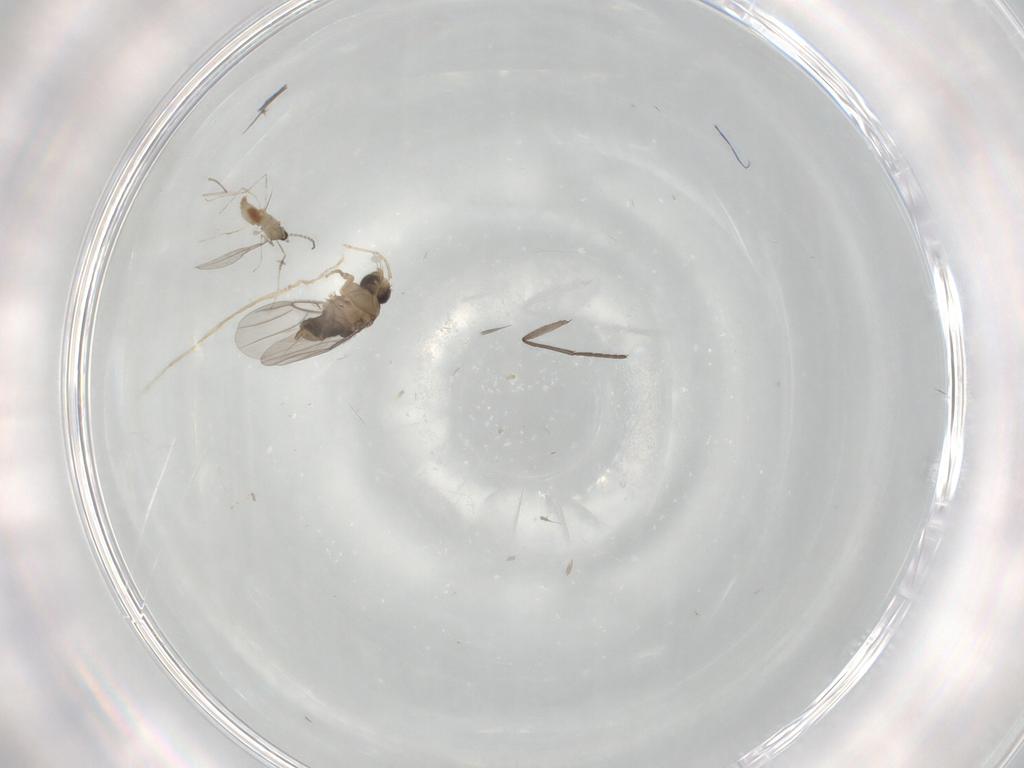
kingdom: Animalia
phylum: Arthropoda
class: Insecta
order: Diptera
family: Cecidomyiidae
